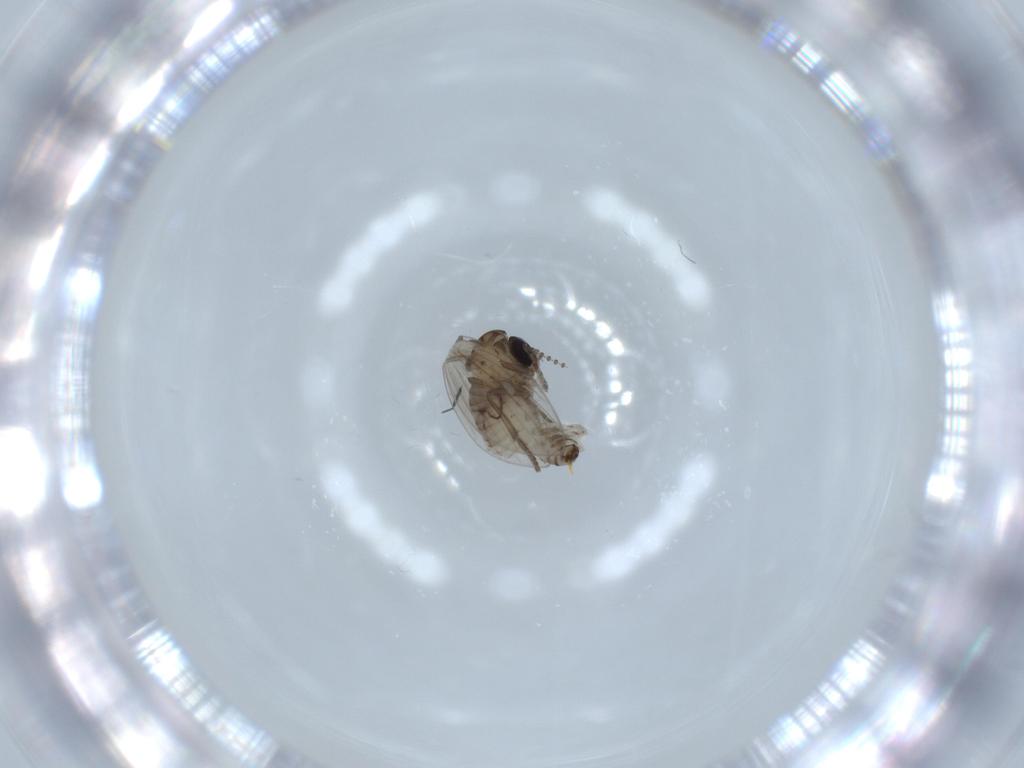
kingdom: Animalia
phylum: Arthropoda
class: Insecta
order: Diptera
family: Psychodidae
